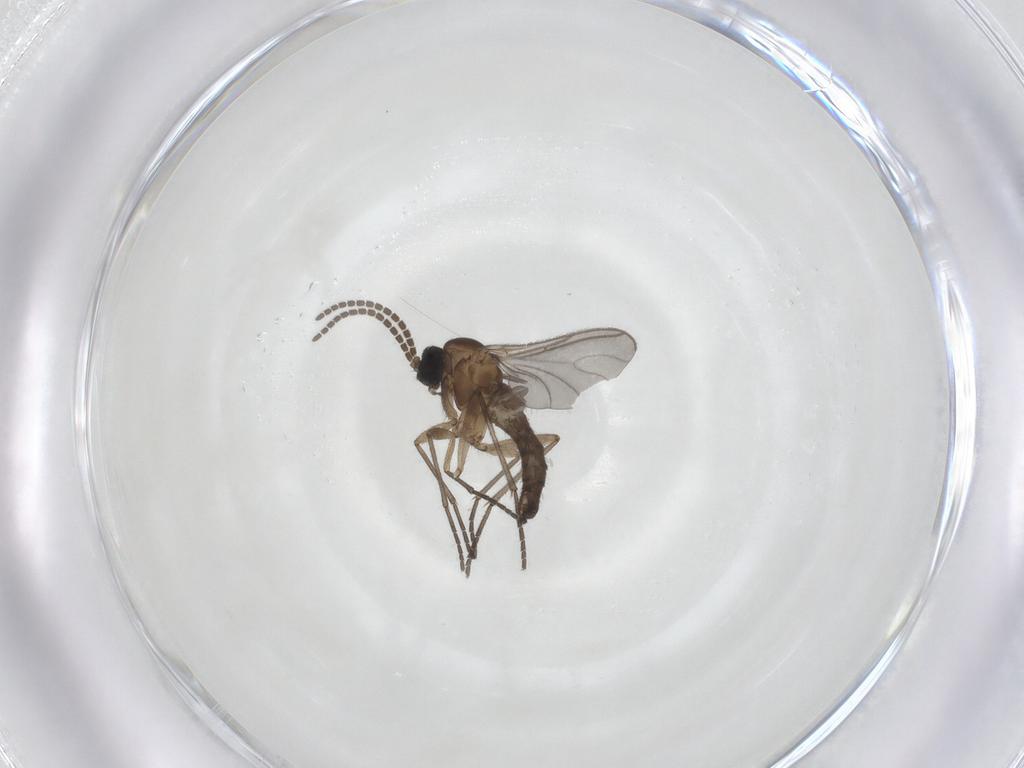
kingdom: Animalia
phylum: Arthropoda
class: Insecta
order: Diptera
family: Sciaridae
